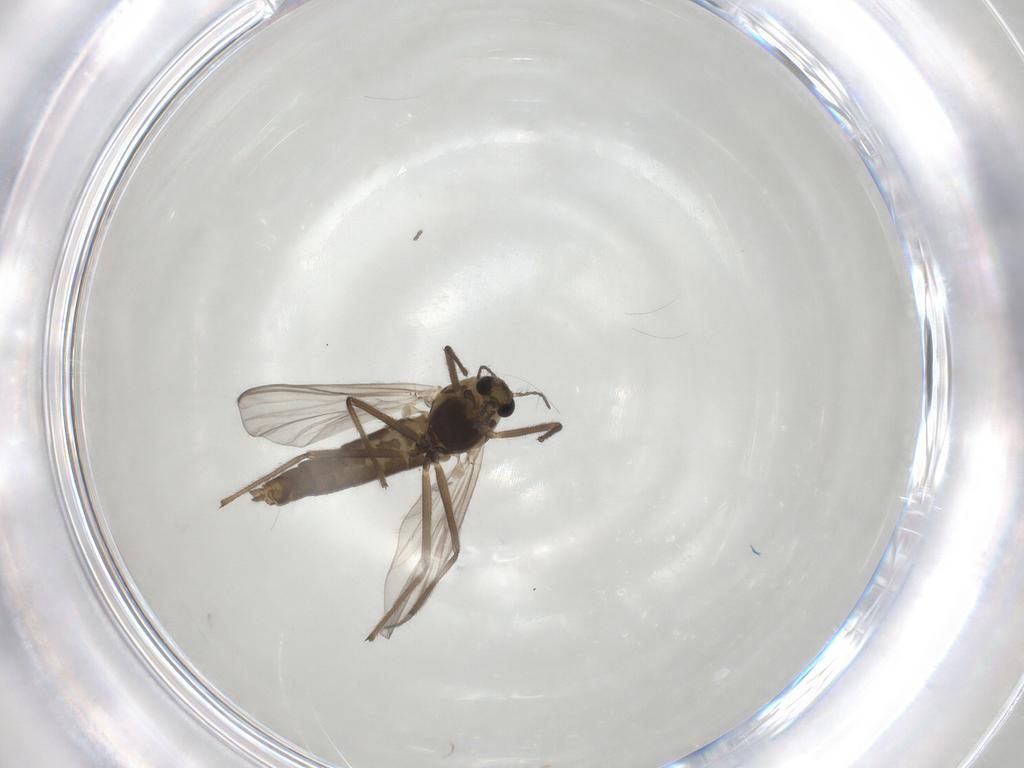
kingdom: Animalia
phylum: Arthropoda
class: Insecta
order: Diptera
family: Chironomidae
